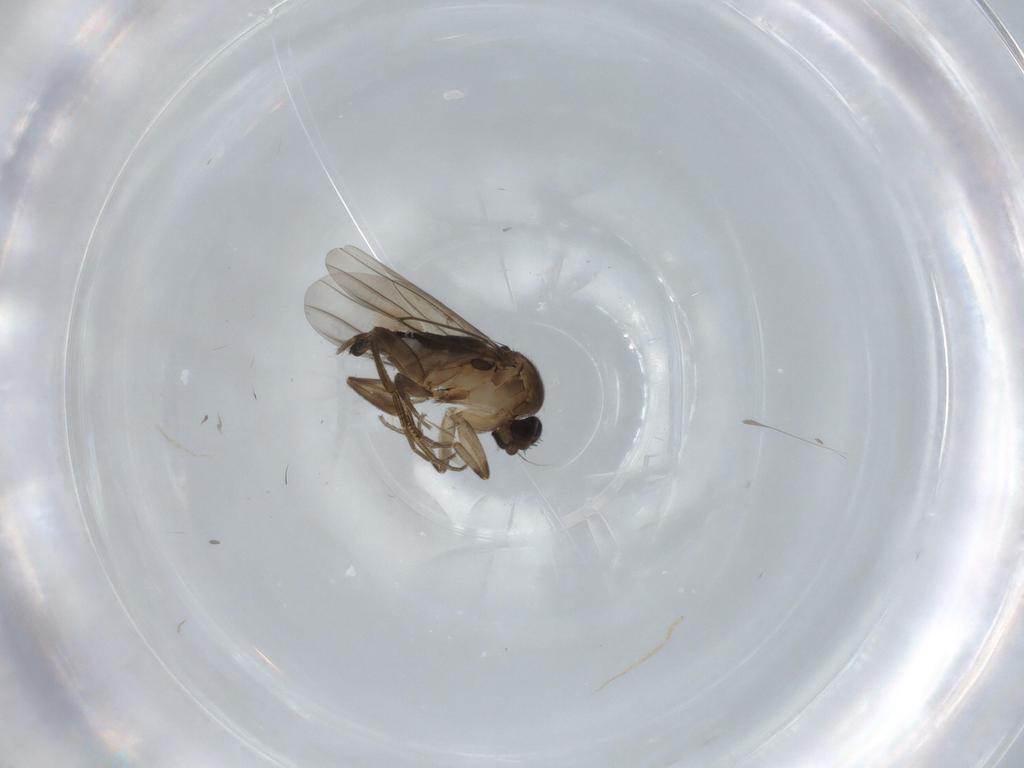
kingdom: Animalia
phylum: Arthropoda
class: Insecta
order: Diptera
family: Phoridae
